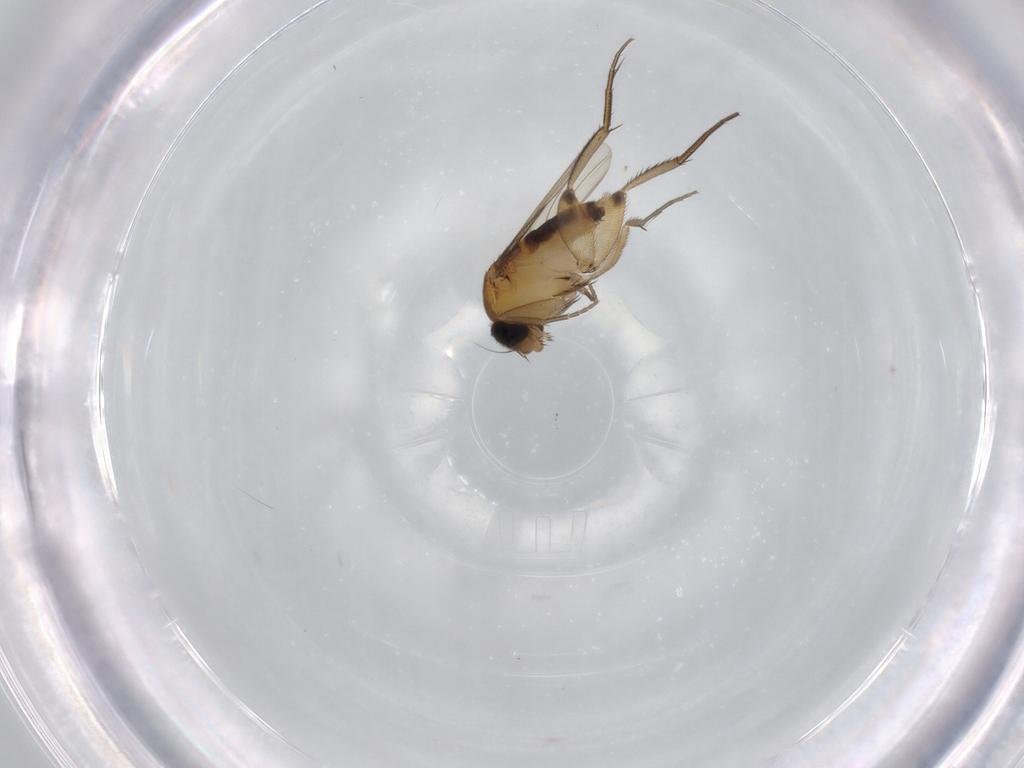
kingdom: Animalia
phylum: Arthropoda
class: Insecta
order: Diptera
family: Phoridae
